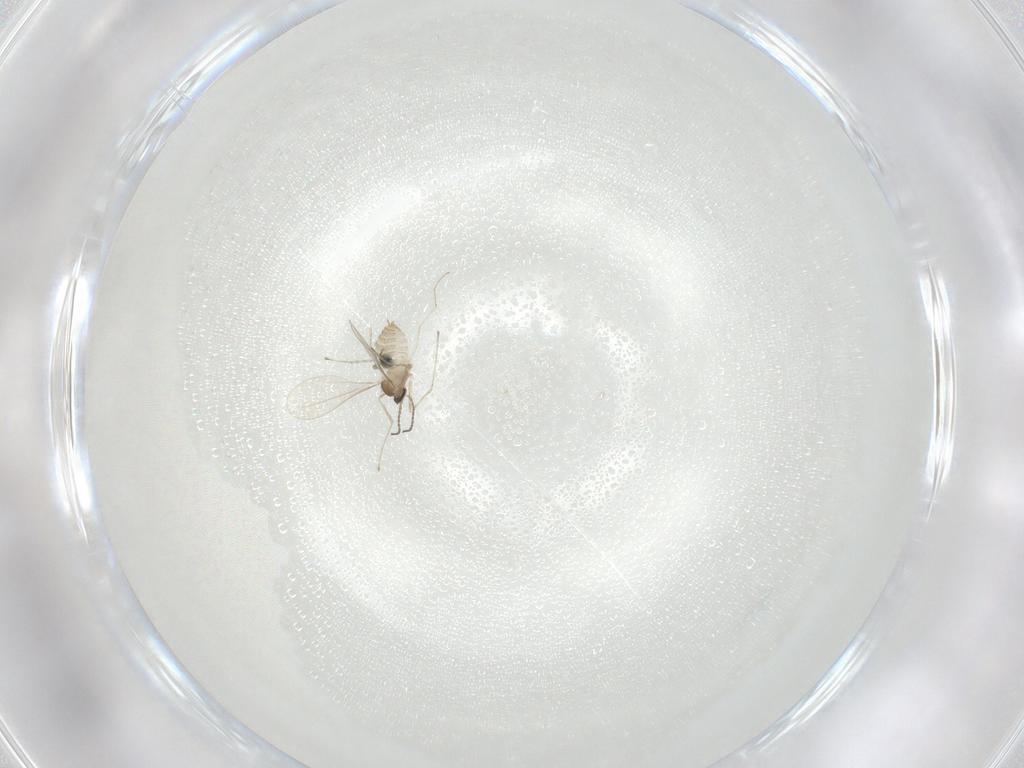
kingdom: Animalia
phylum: Arthropoda
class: Insecta
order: Diptera
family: Cecidomyiidae
